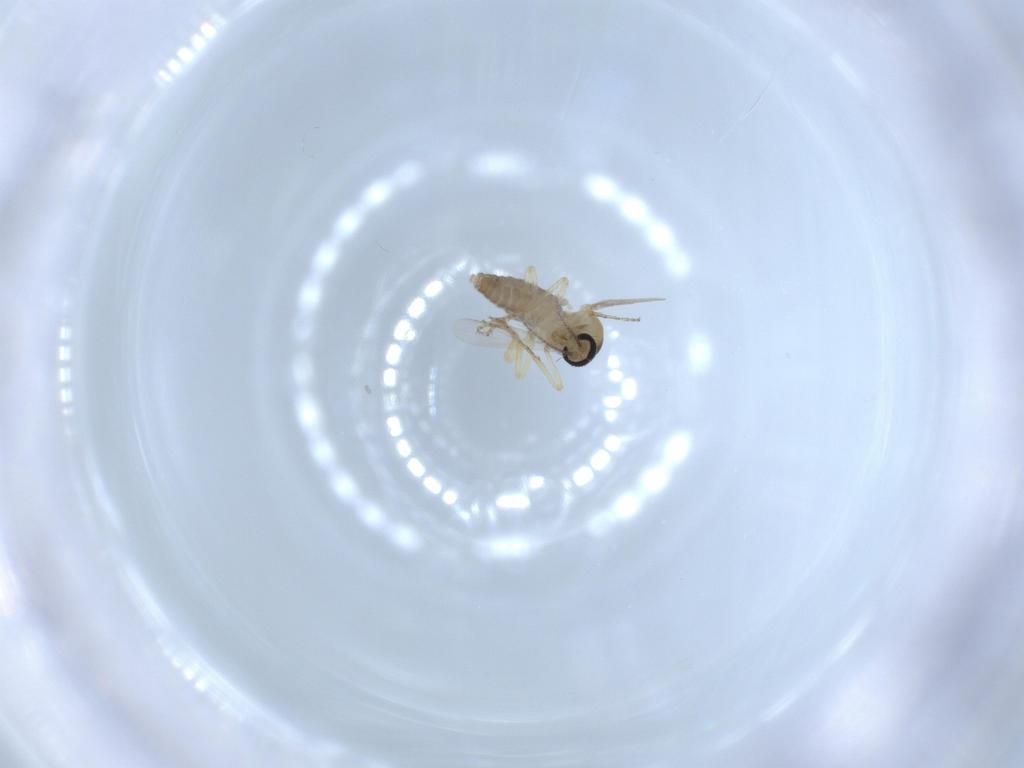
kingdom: Animalia
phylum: Arthropoda
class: Insecta
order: Diptera
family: Ceratopogonidae
